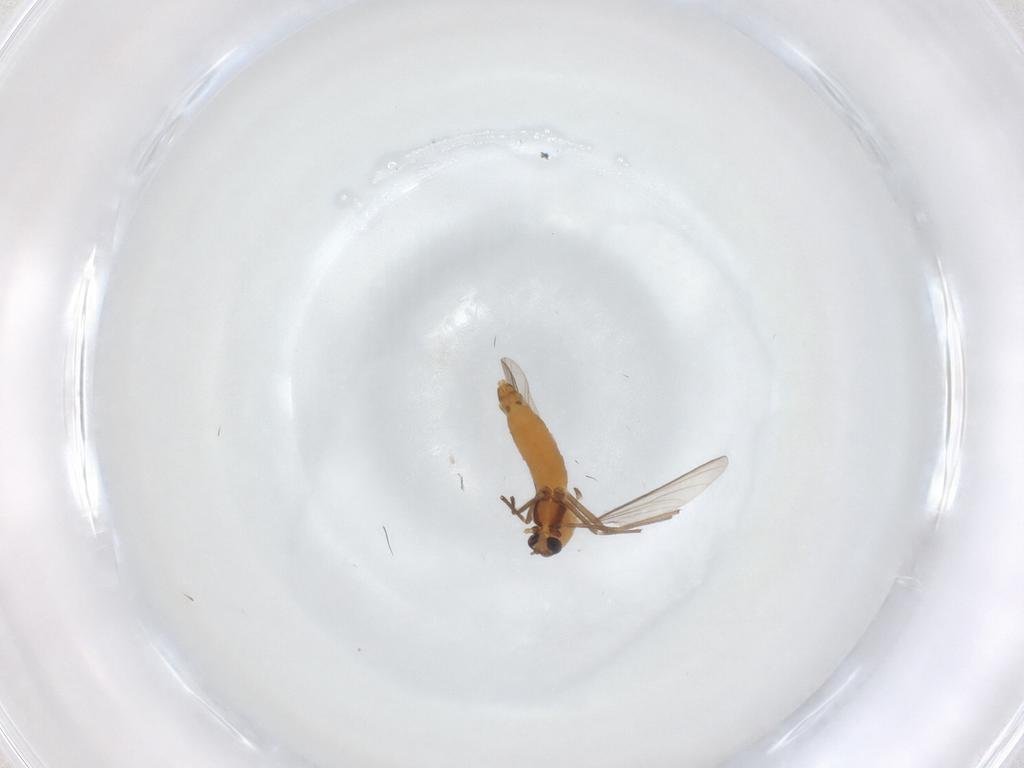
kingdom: Animalia
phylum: Arthropoda
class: Insecta
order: Diptera
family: Chironomidae
